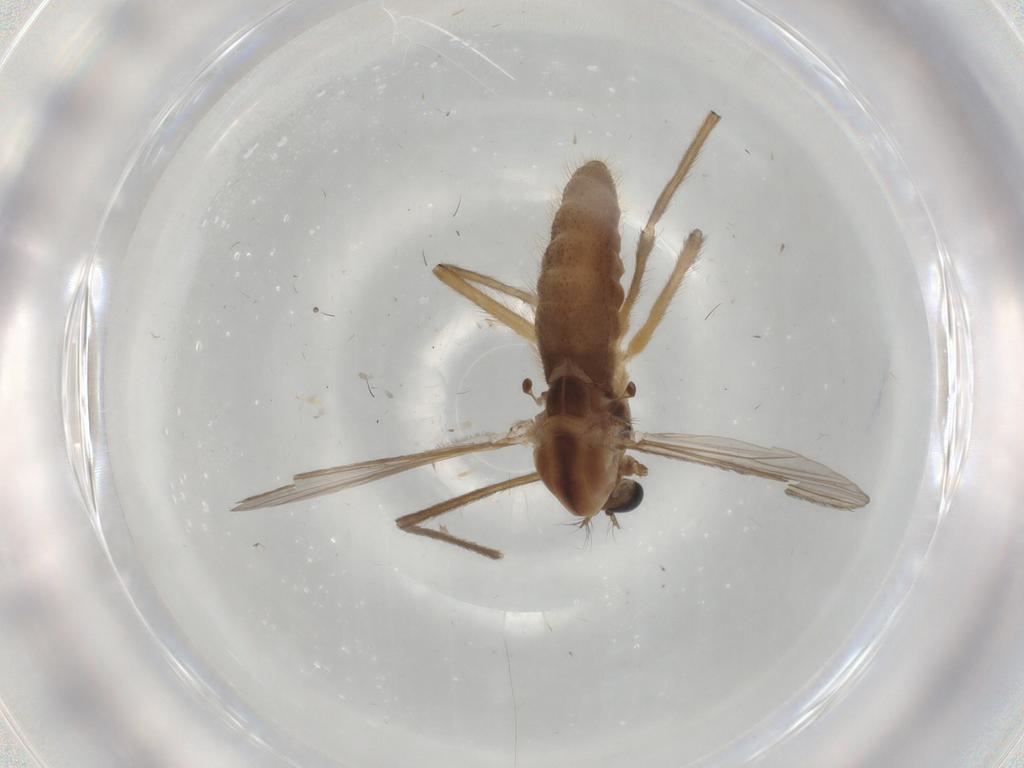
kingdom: Animalia
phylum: Arthropoda
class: Insecta
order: Diptera
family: Chironomidae
